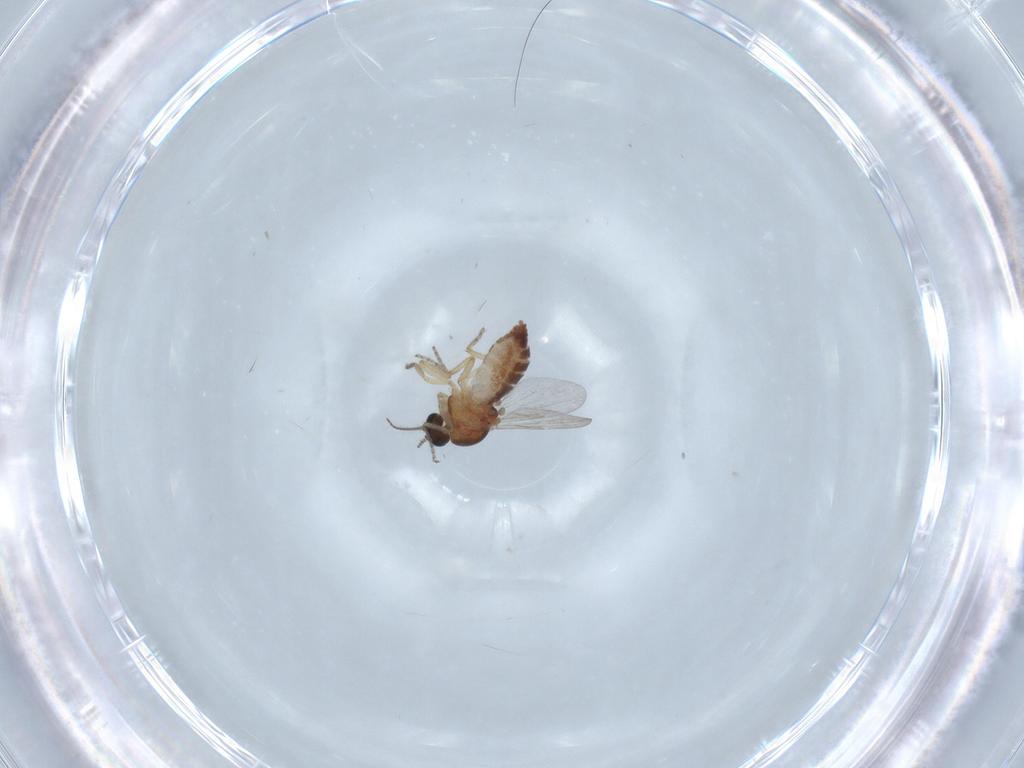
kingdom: Animalia
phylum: Arthropoda
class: Insecta
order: Diptera
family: Ceratopogonidae
